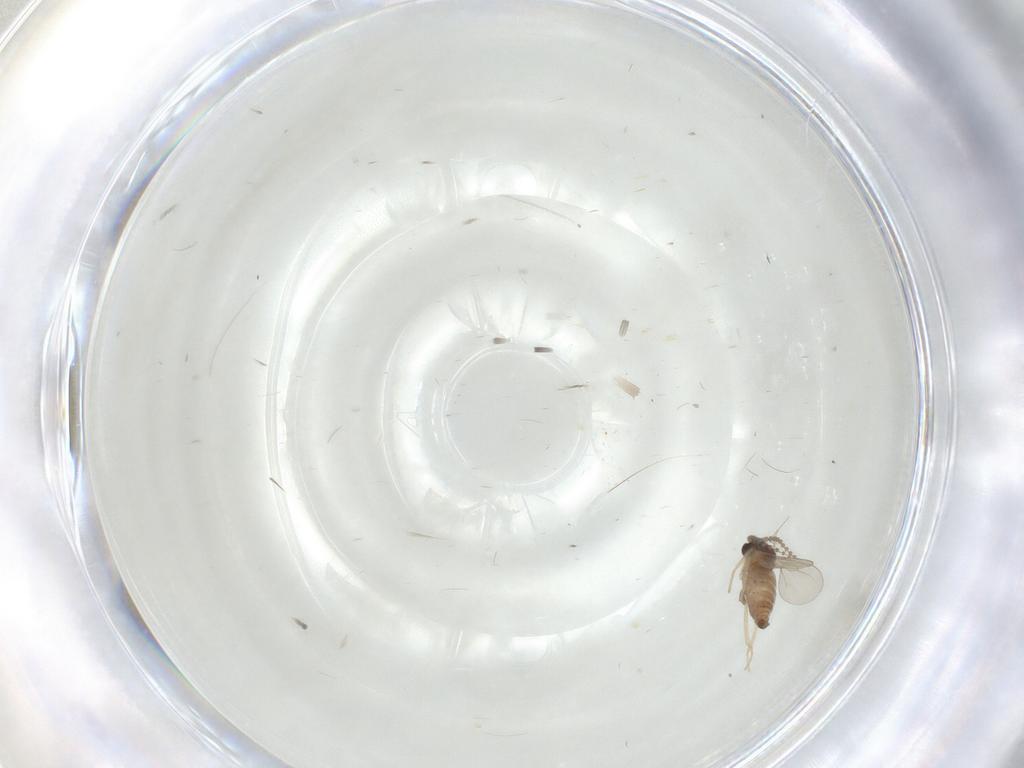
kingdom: Animalia
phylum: Arthropoda
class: Insecta
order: Diptera
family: Cecidomyiidae
